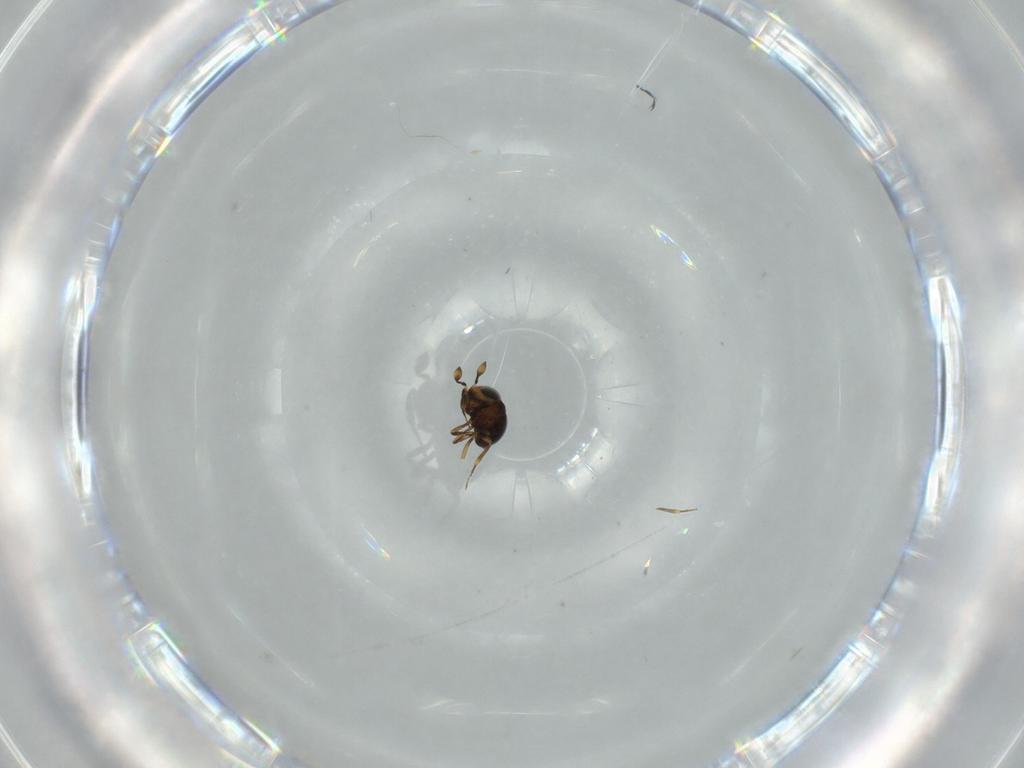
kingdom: Animalia
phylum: Arthropoda
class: Insecta
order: Hymenoptera
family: Scelionidae
